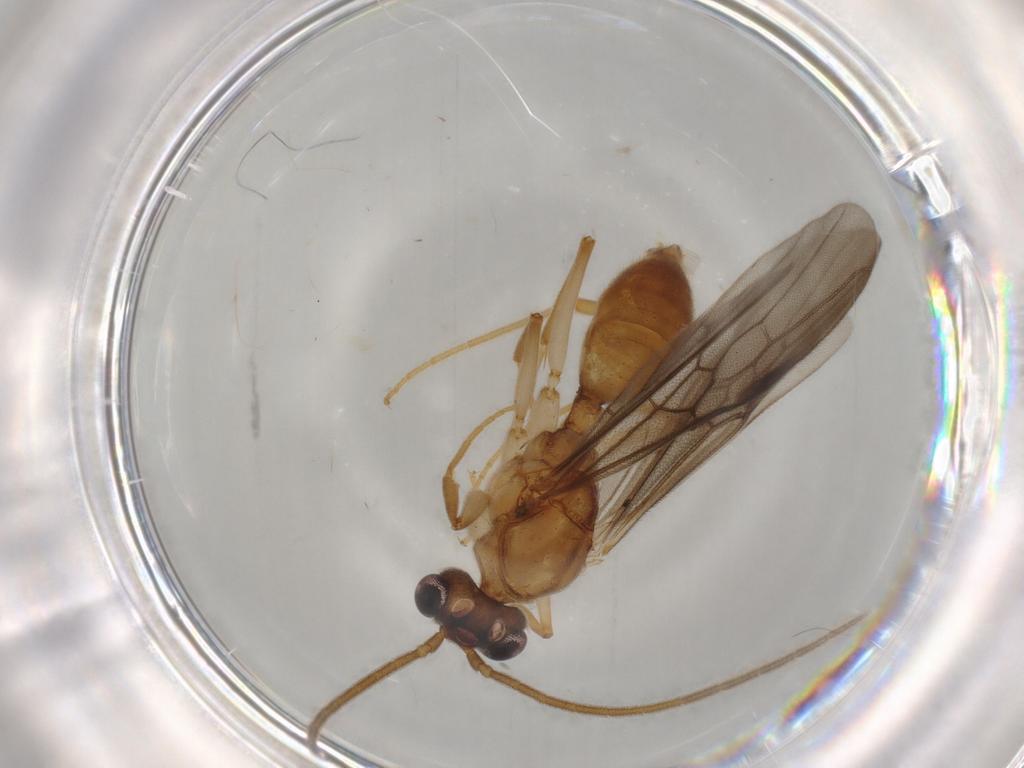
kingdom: Animalia
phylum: Arthropoda
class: Insecta
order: Hymenoptera
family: Formicidae
